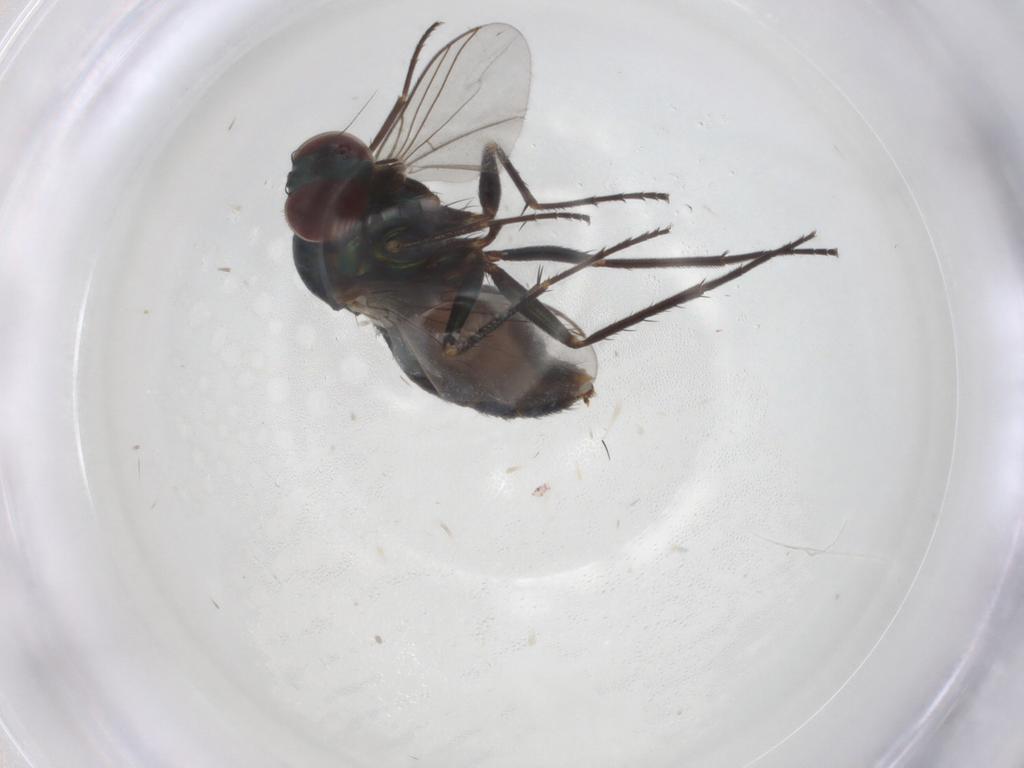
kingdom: Animalia
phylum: Arthropoda
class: Insecta
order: Diptera
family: Dolichopodidae
